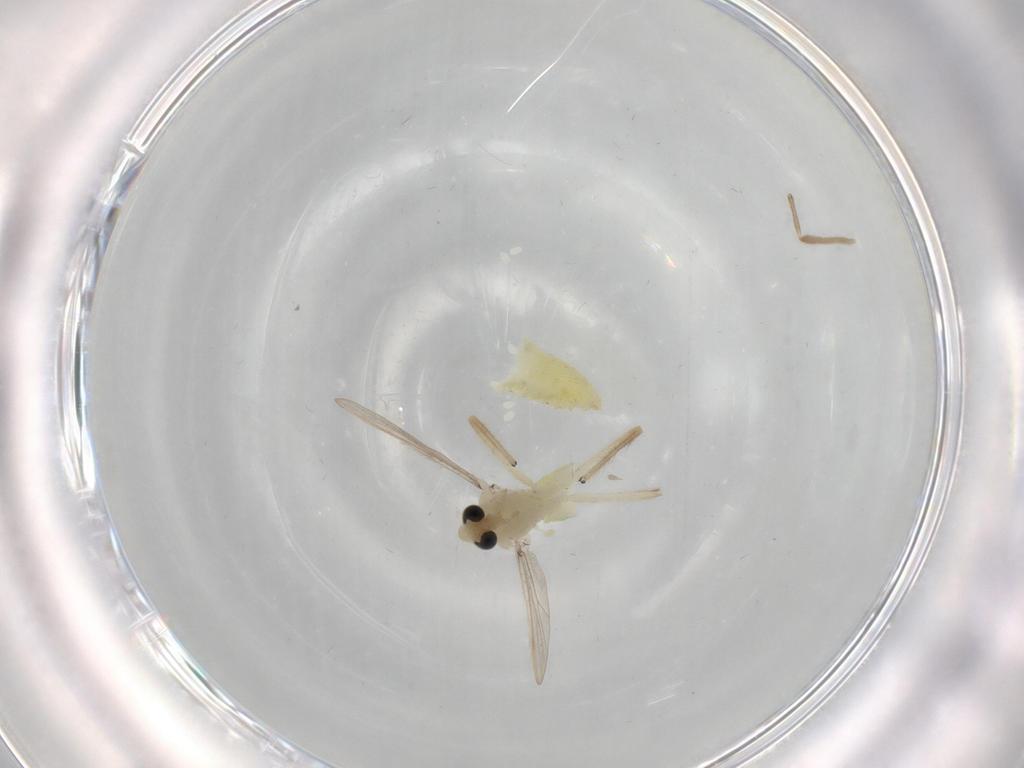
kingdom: Animalia
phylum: Arthropoda
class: Insecta
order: Diptera
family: Chironomidae
